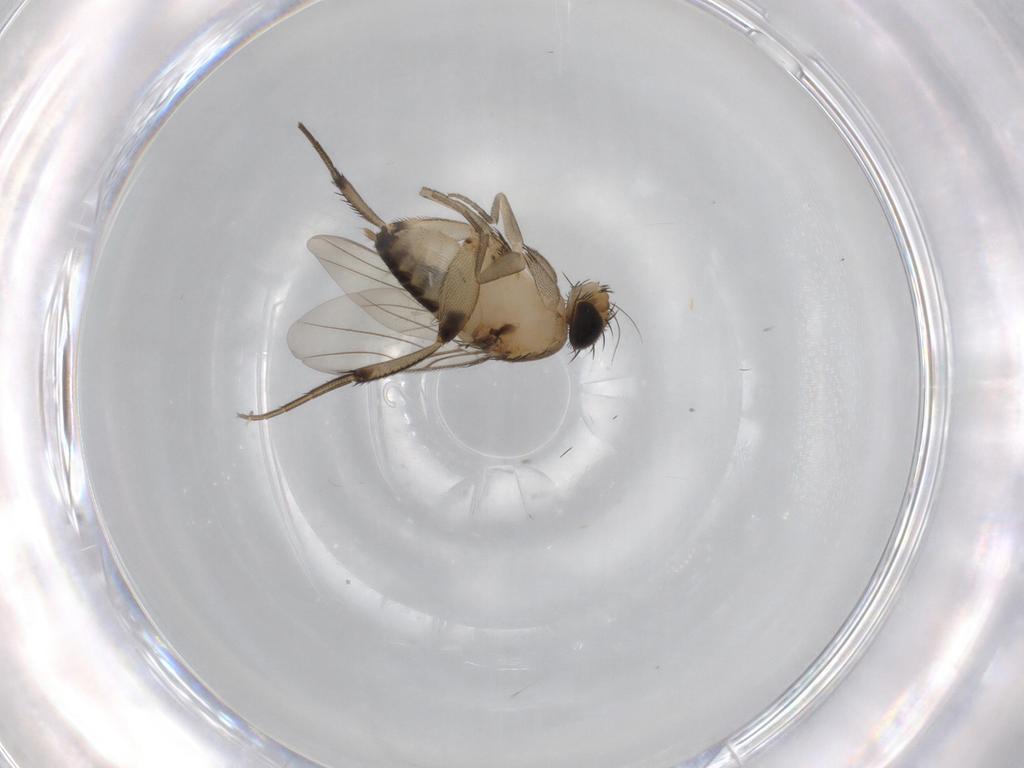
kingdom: Animalia
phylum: Arthropoda
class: Insecta
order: Diptera
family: Phoridae
